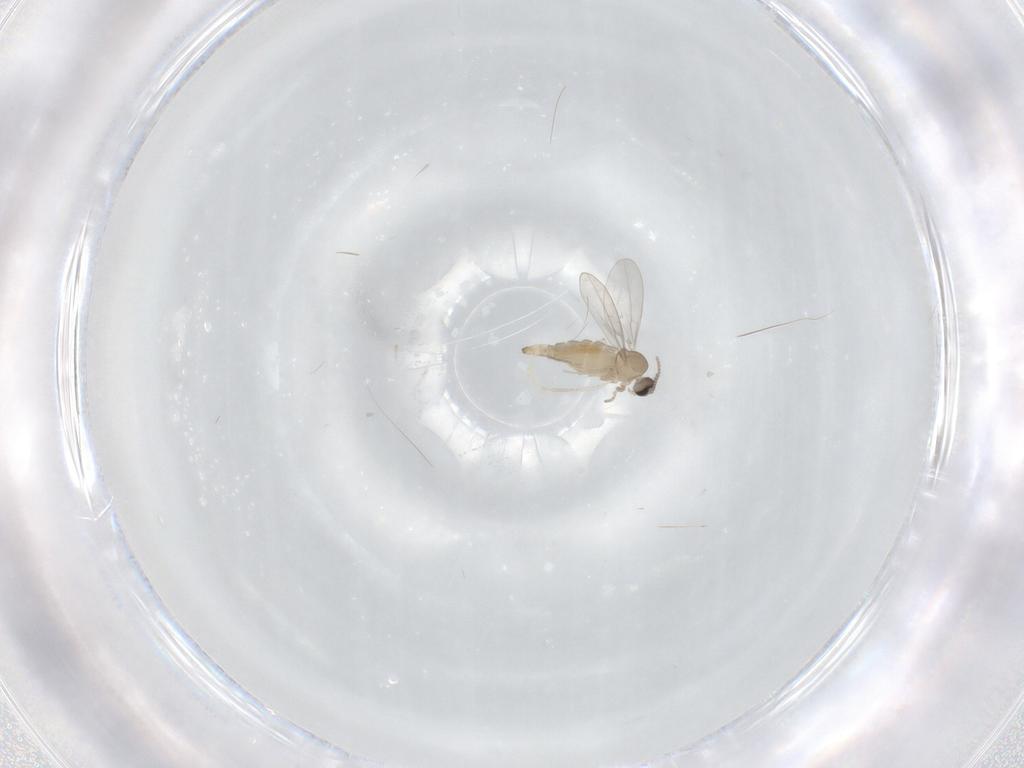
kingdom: Animalia
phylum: Arthropoda
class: Insecta
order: Diptera
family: Cecidomyiidae
